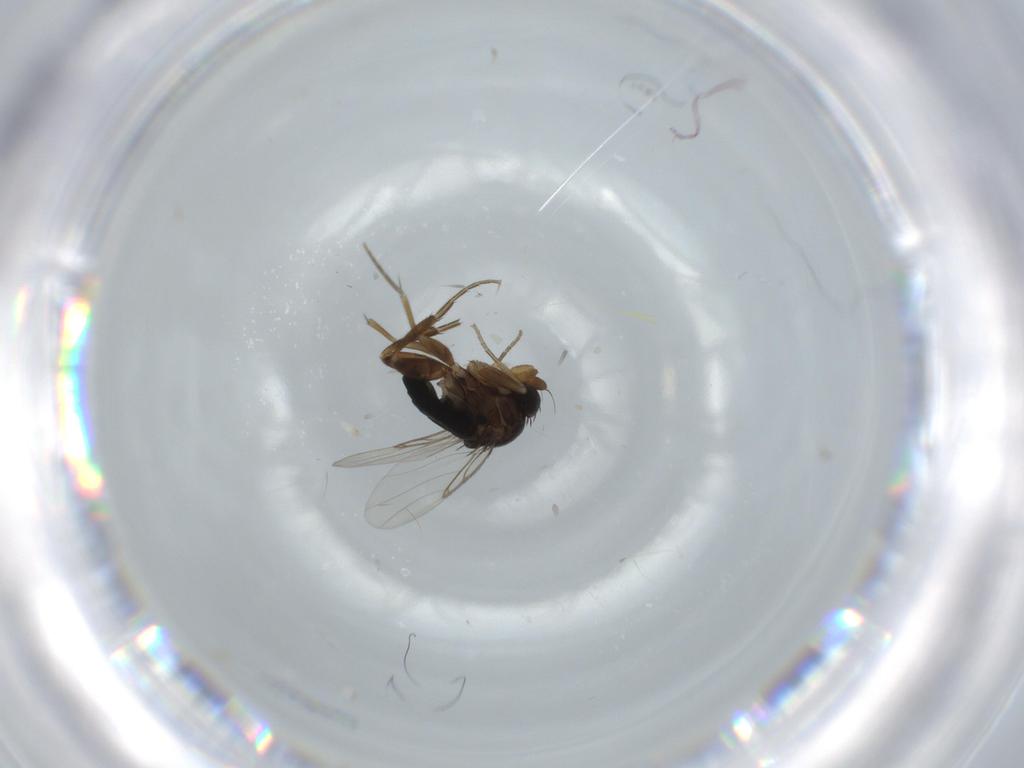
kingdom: Animalia
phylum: Arthropoda
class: Insecta
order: Diptera
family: Phoridae
